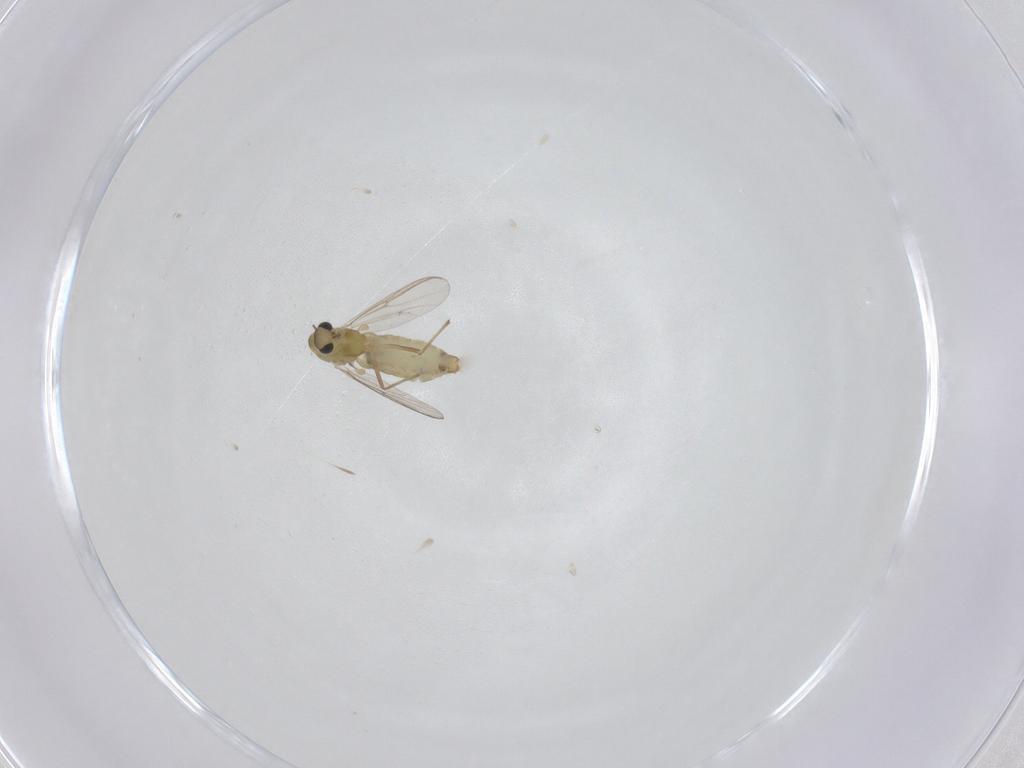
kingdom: Animalia
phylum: Arthropoda
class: Insecta
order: Diptera
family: Chironomidae
